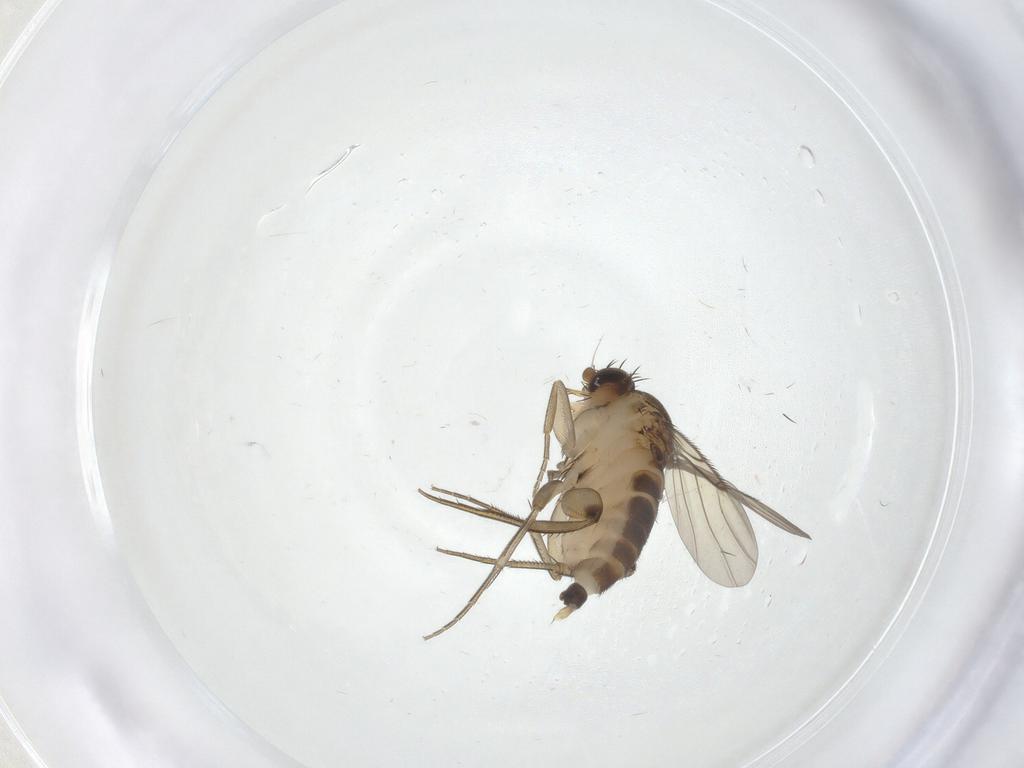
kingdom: Animalia
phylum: Arthropoda
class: Insecta
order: Diptera
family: Phoridae
